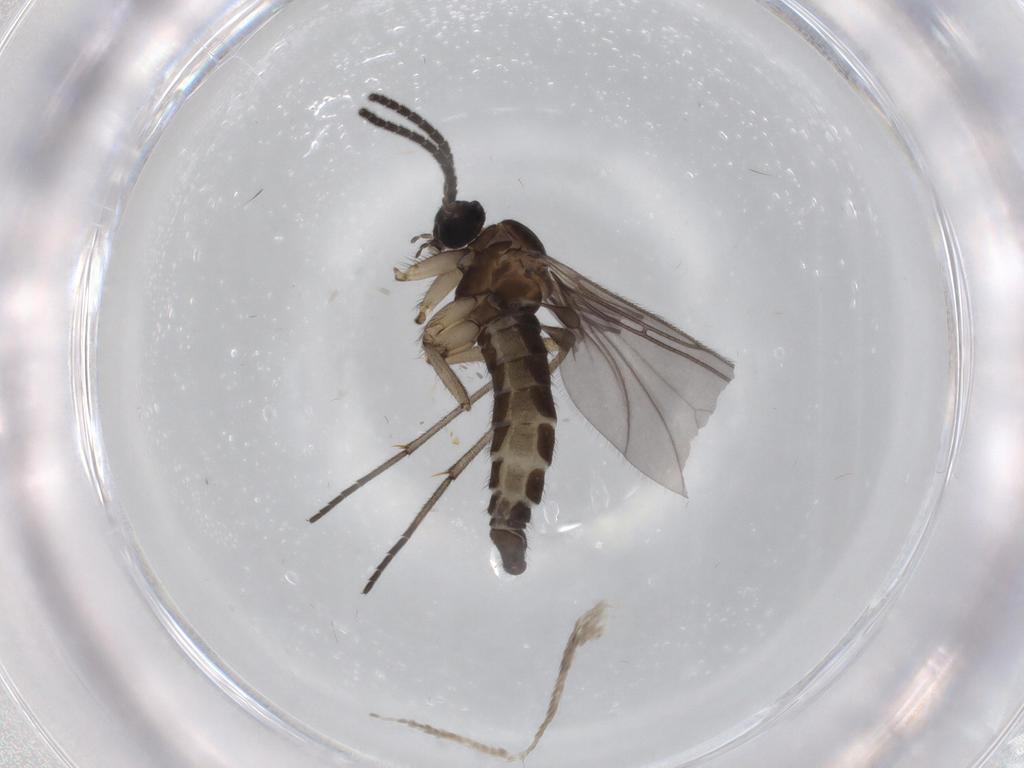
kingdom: Animalia
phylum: Arthropoda
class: Insecta
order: Diptera
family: Sciaridae
